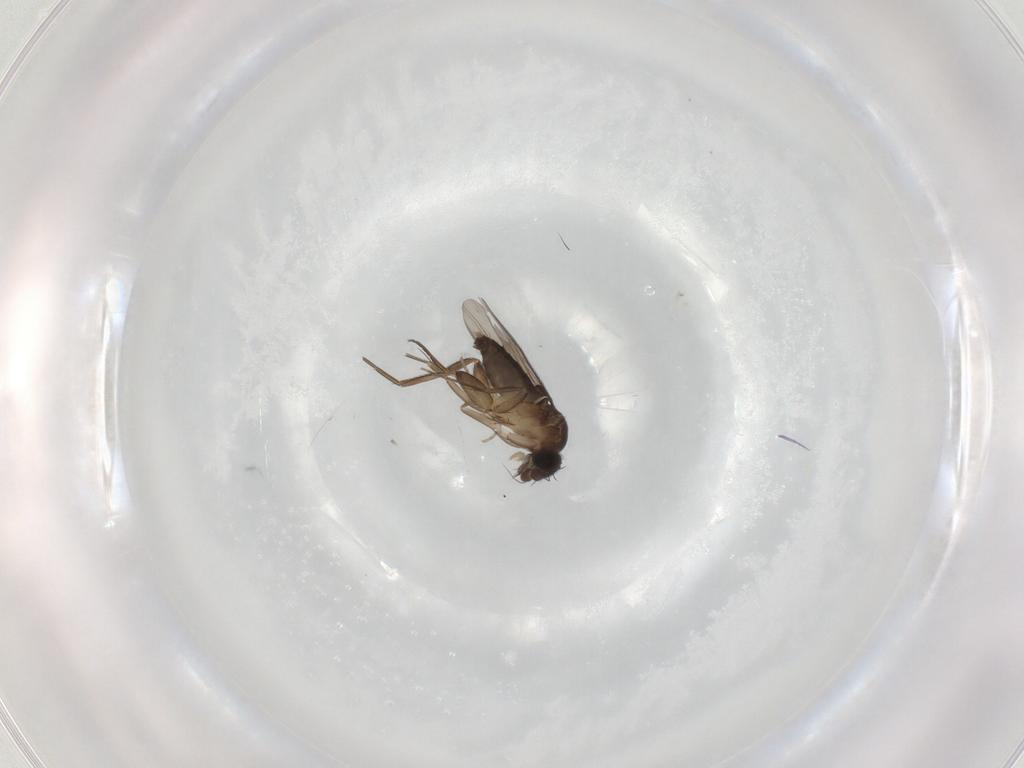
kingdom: Animalia
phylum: Arthropoda
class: Insecta
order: Diptera
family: Phoridae
